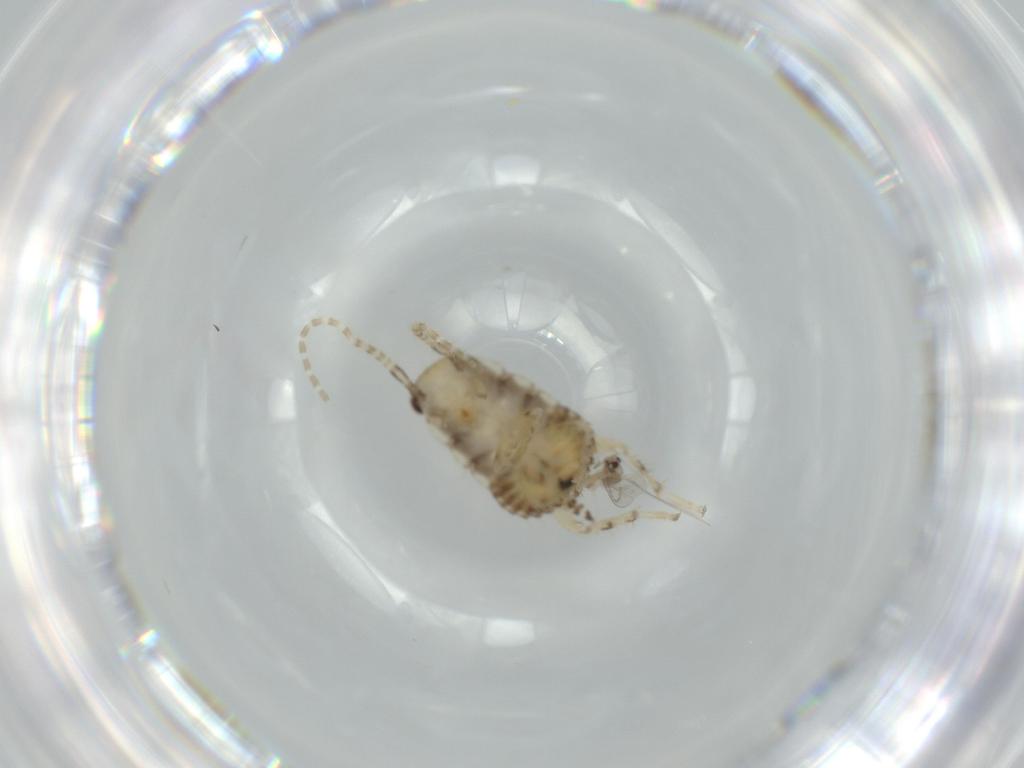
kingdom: Animalia
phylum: Arthropoda
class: Insecta
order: Blattodea
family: Ectobiidae
